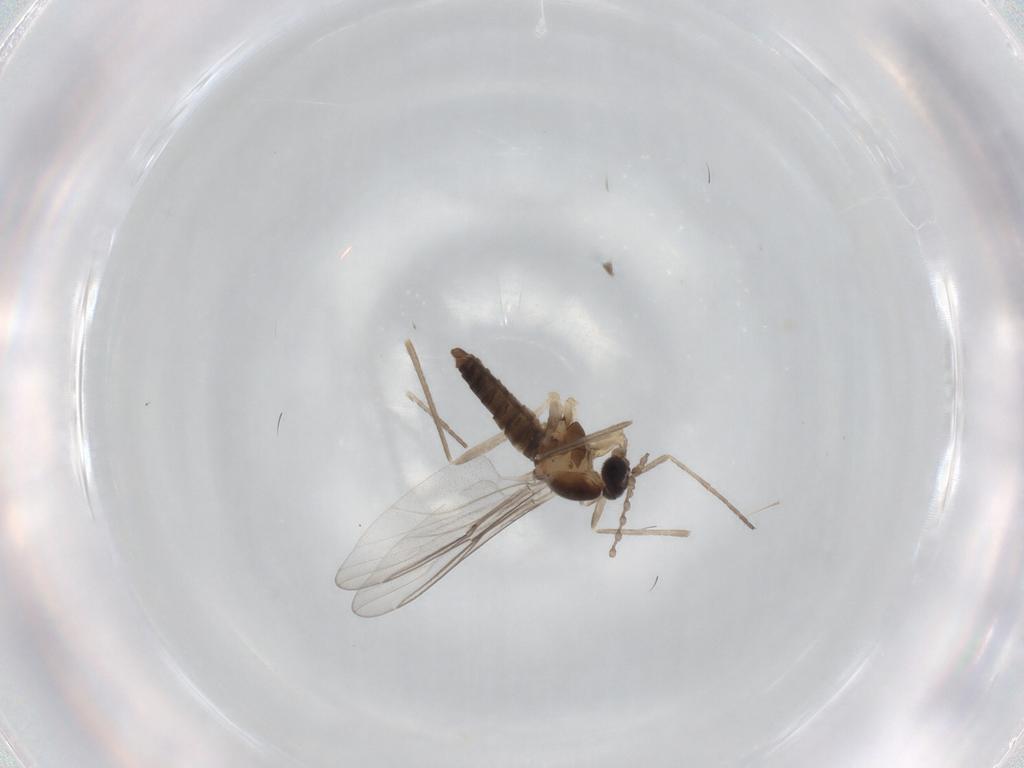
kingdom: Animalia
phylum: Arthropoda
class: Insecta
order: Diptera
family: Cecidomyiidae
